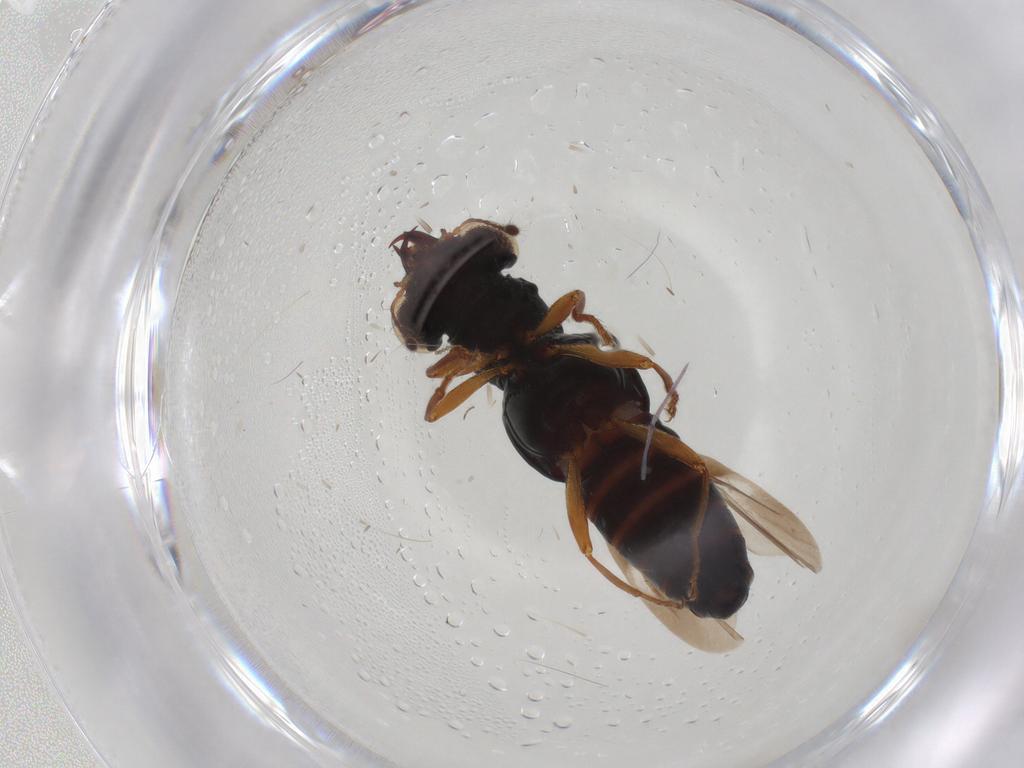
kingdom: Animalia
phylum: Arthropoda
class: Insecta
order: Coleoptera
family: Staphylinidae
